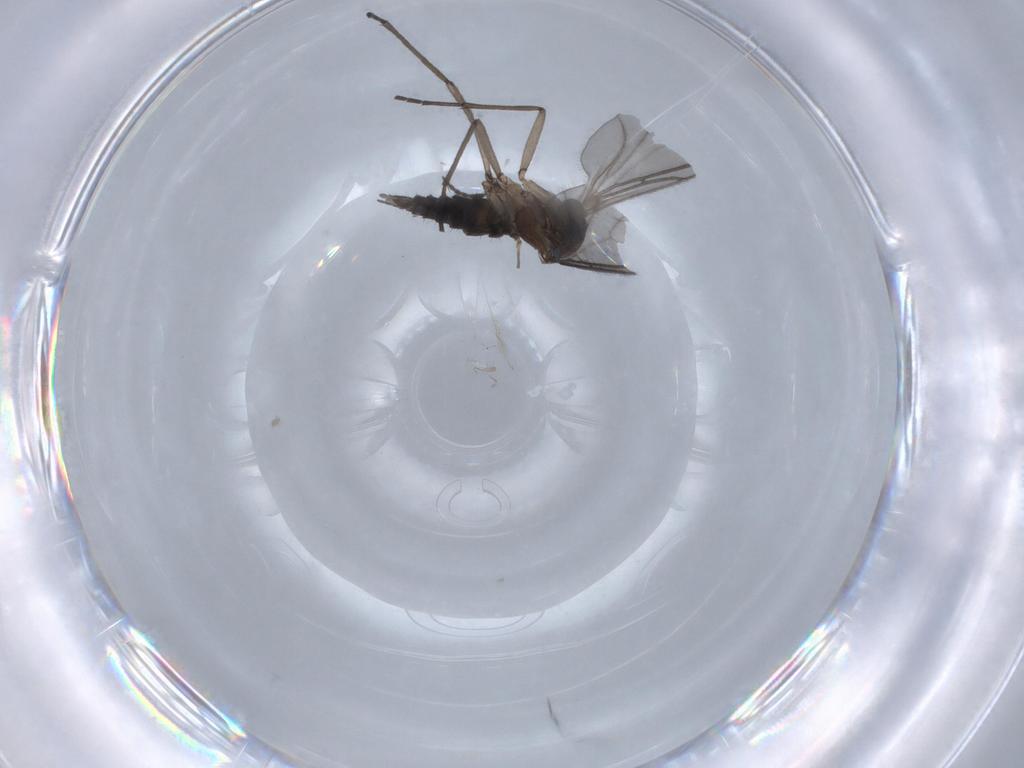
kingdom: Animalia
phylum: Arthropoda
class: Insecta
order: Diptera
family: Sciaridae
